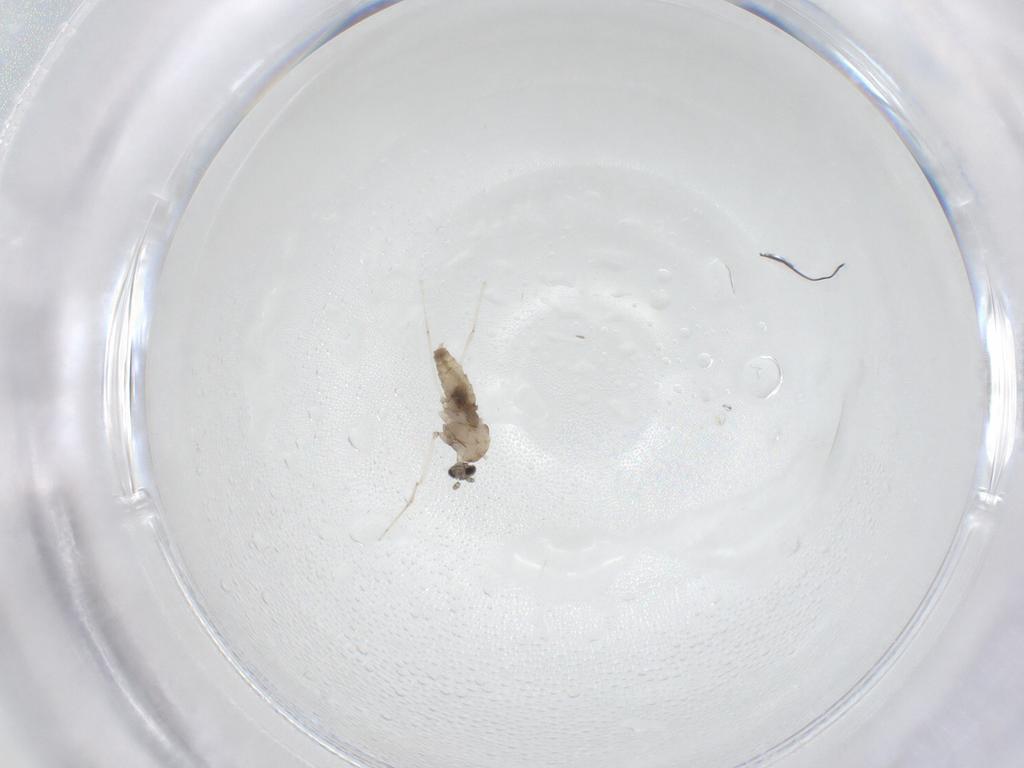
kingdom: Animalia
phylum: Arthropoda
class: Insecta
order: Diptera
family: Cecidomyiidae
